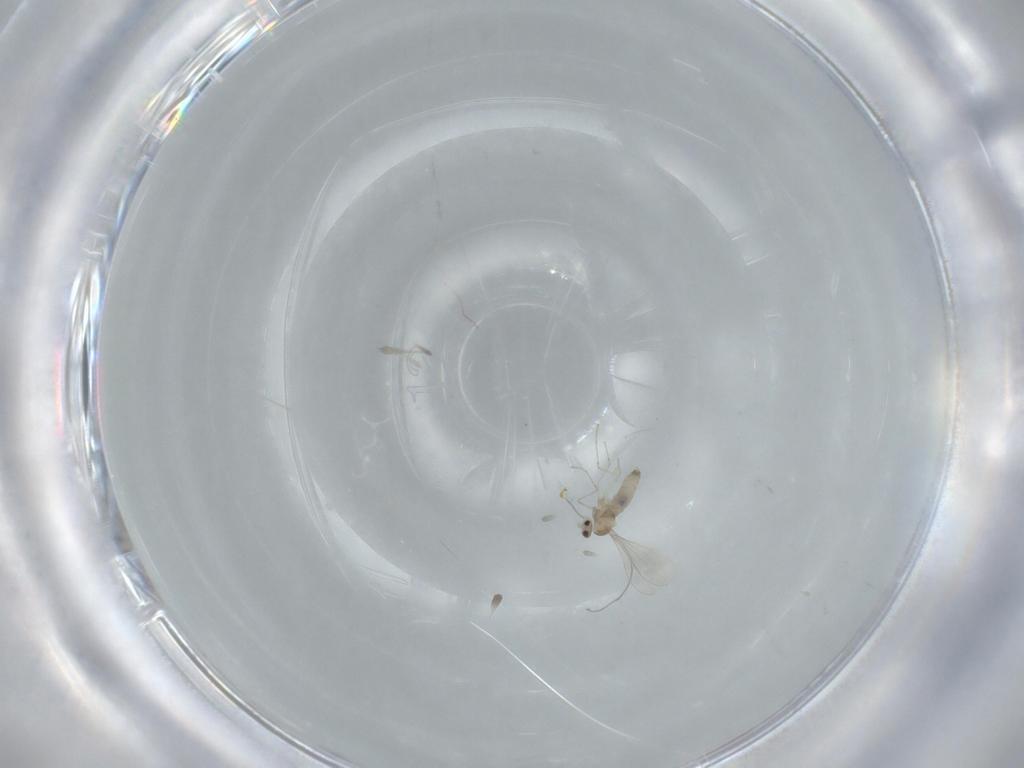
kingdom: Animalia
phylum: Arthropoda
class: Insecta
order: Diptera
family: Cecidomyiidae
